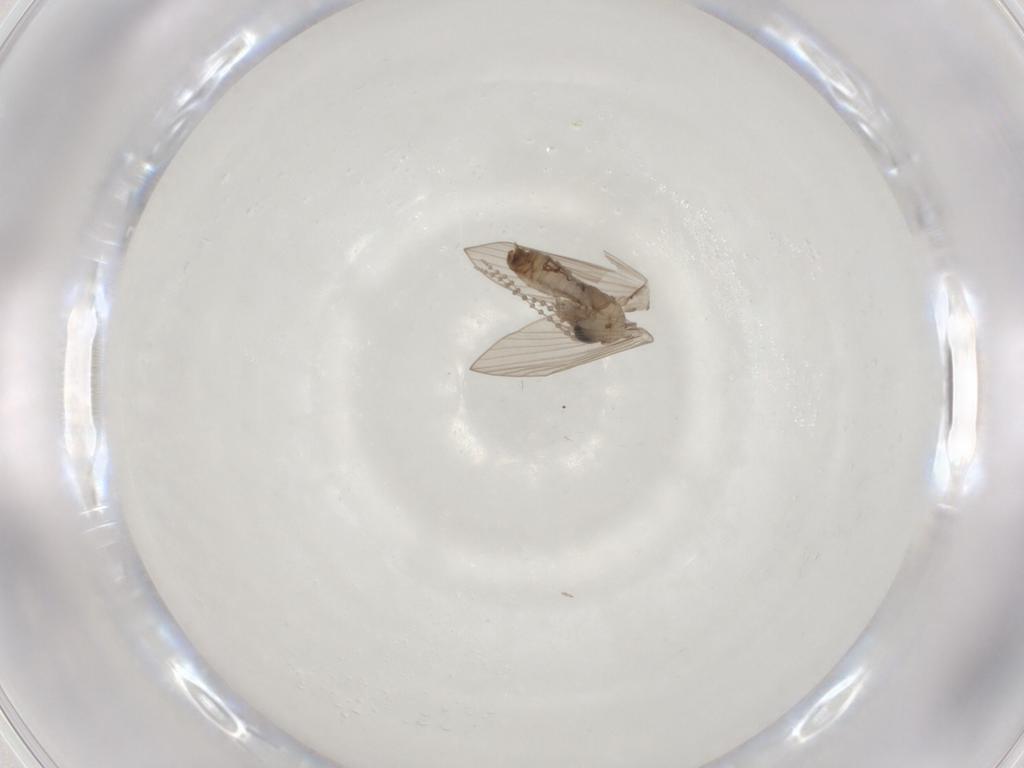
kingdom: Animalia
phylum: Arthropoda
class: Insecta
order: Diptera
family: Psychodidae
